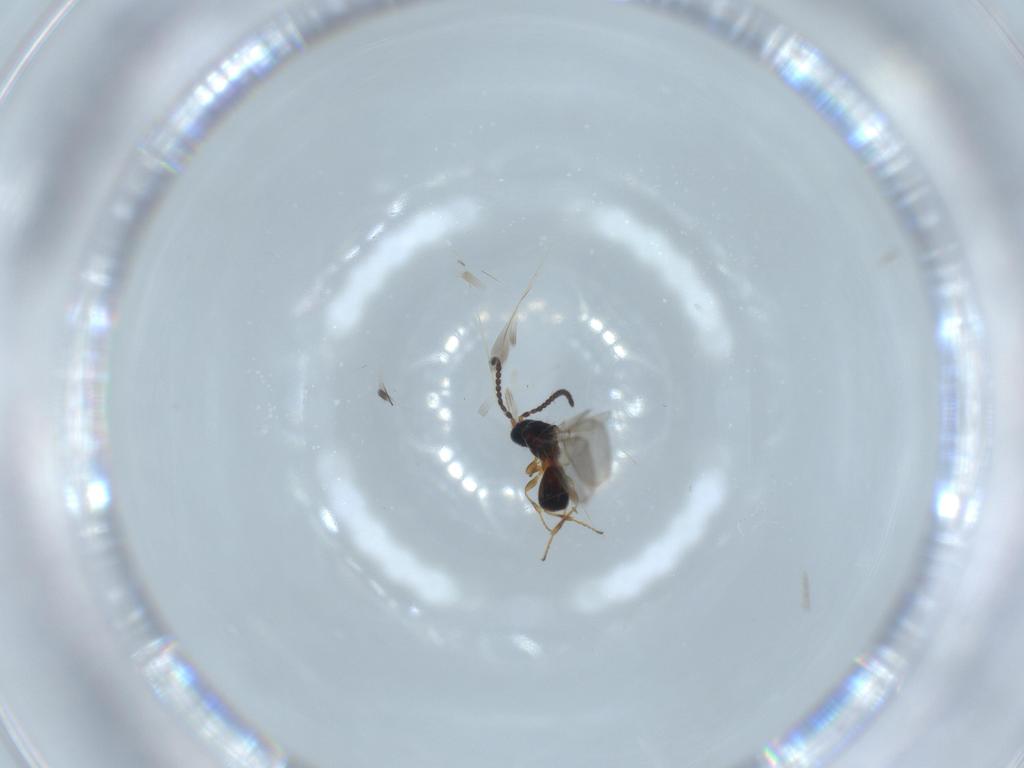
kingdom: Animalia
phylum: Arthropoda
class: Insecta
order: Hymenoptera
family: Diapriidae
